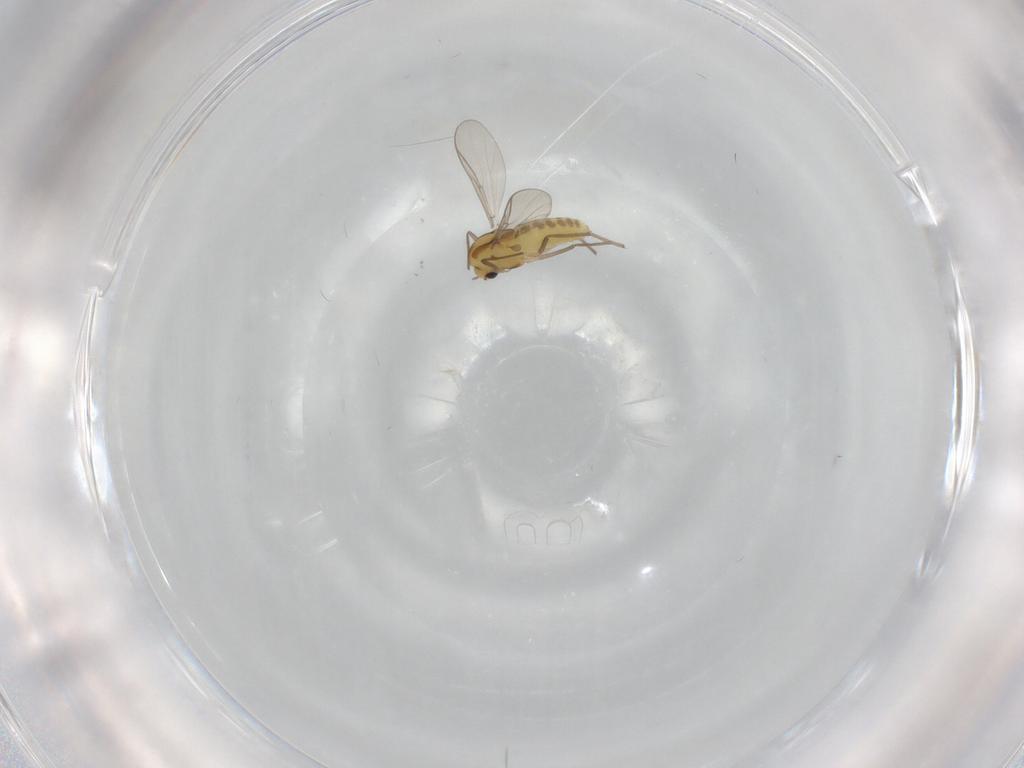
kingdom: Animalia
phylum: Arthropoda
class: Insecta
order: Diptera
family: Chironomidae
